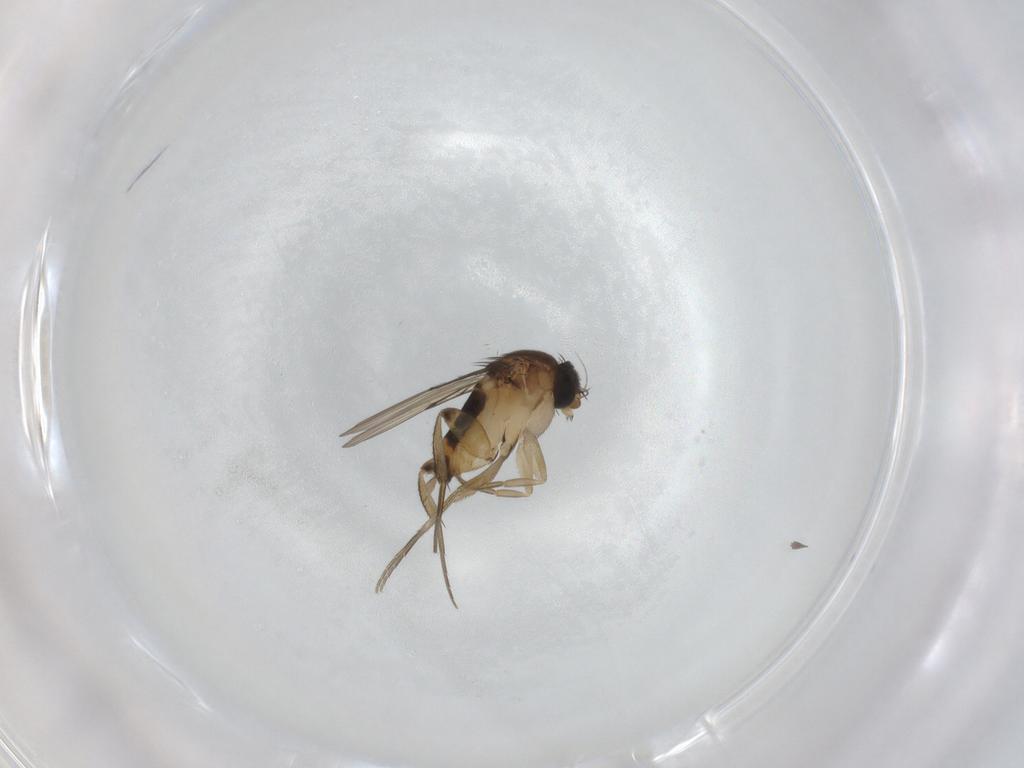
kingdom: Animalia
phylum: Arthropoda
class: Insecta
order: Diptera
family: Phoridae
